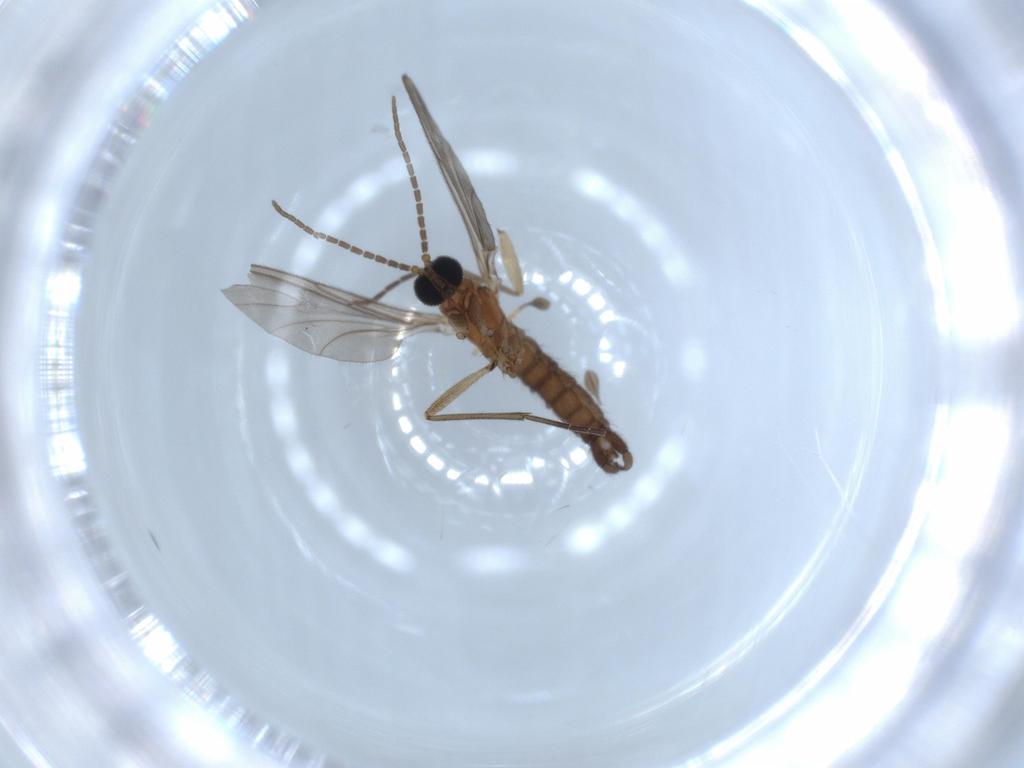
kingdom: Animalia
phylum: Arthropoda
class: Insecta
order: Diptera
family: Sciaridae
